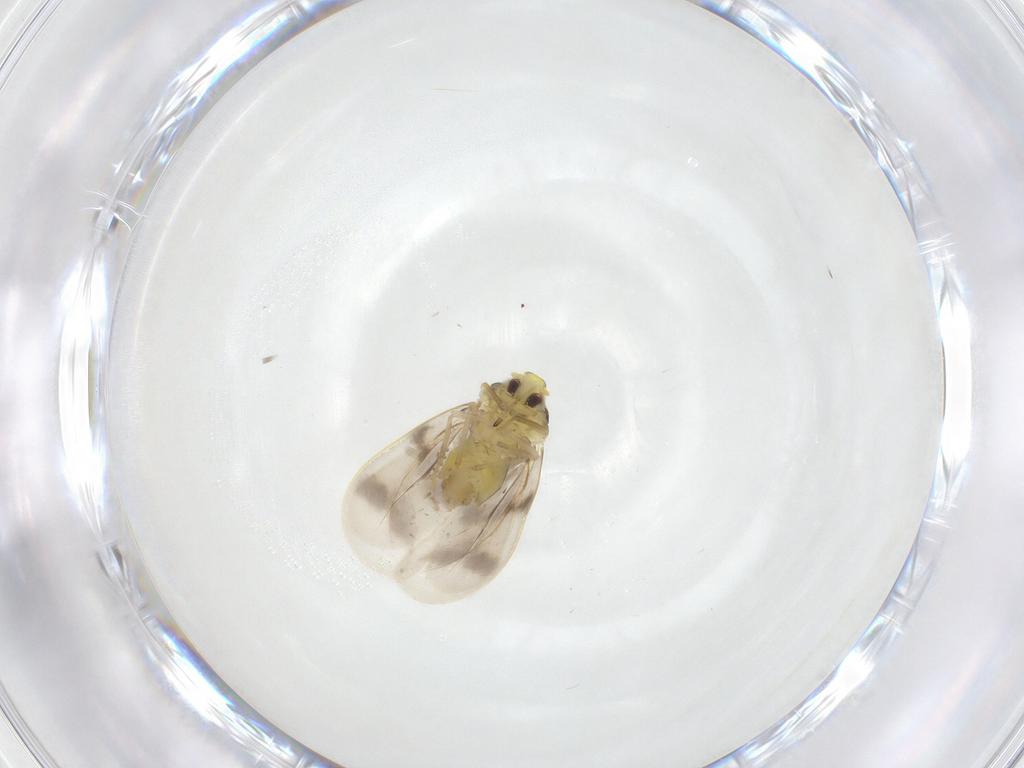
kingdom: Animalia
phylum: Arthropoda
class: Insecta
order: Hemiptera
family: Aleyrodidae
